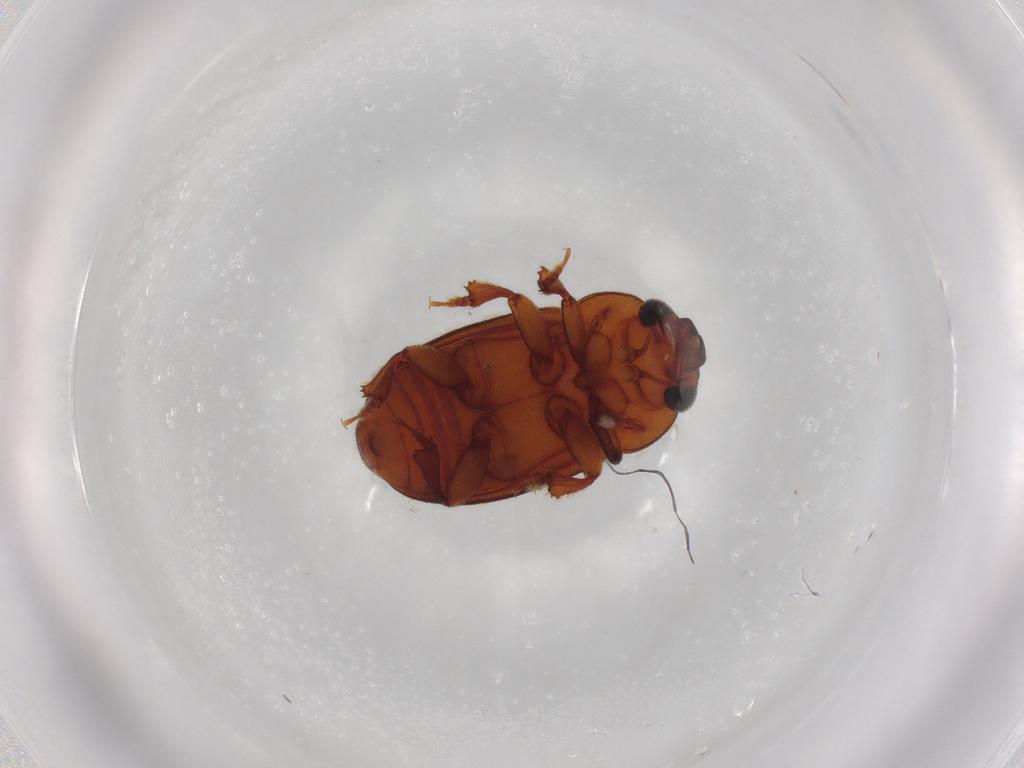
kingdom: Animalia
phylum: Arthropoda
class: Insecta
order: Coleoptera
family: Nitidulidae
